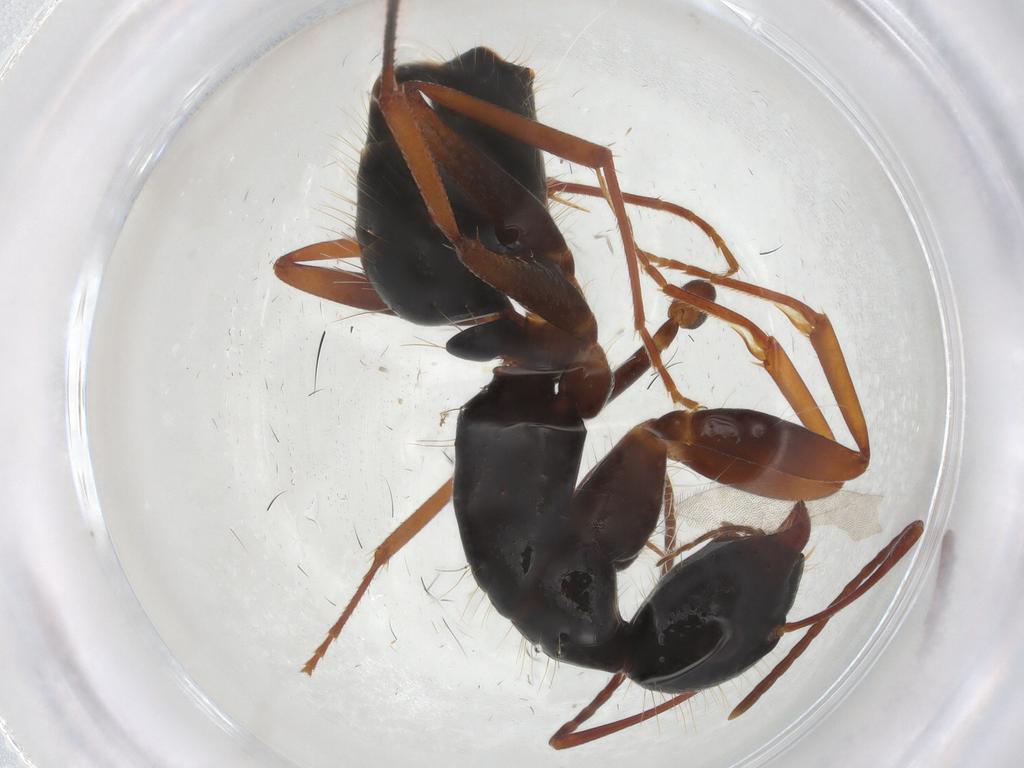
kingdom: Animalia
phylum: Arthropoda
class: Insecta
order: Hymenoptera
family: Formicidae
